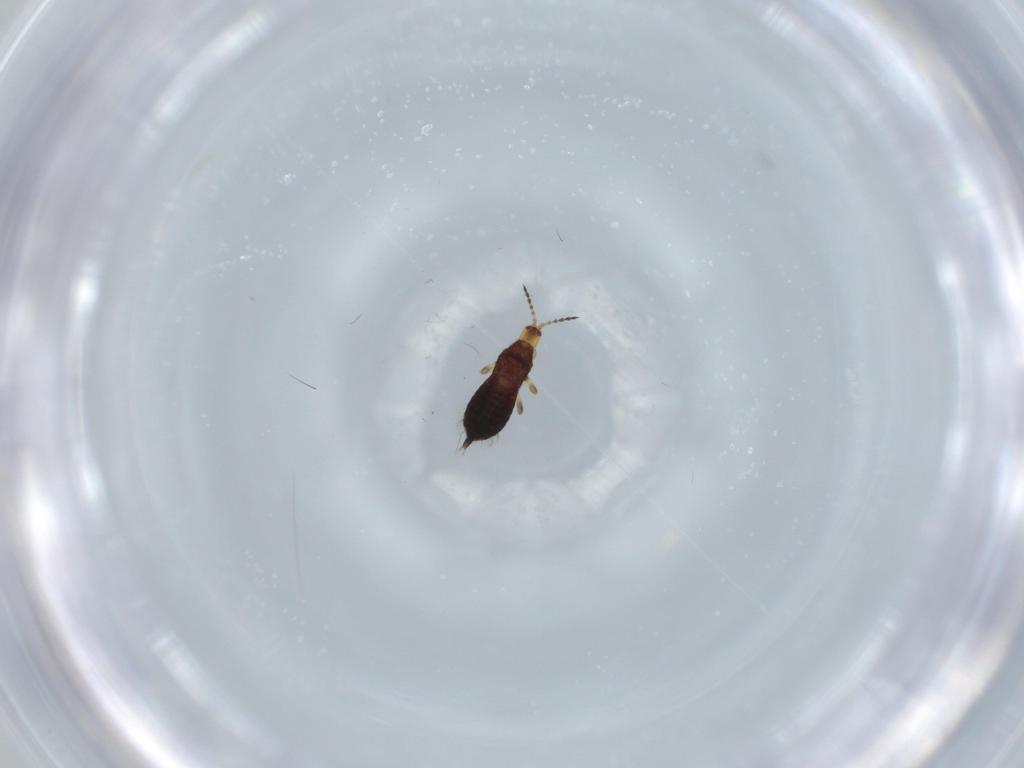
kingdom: Animalia
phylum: Arthropoda
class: Insecta
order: Thysanoptera
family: Phlaeothripidae
